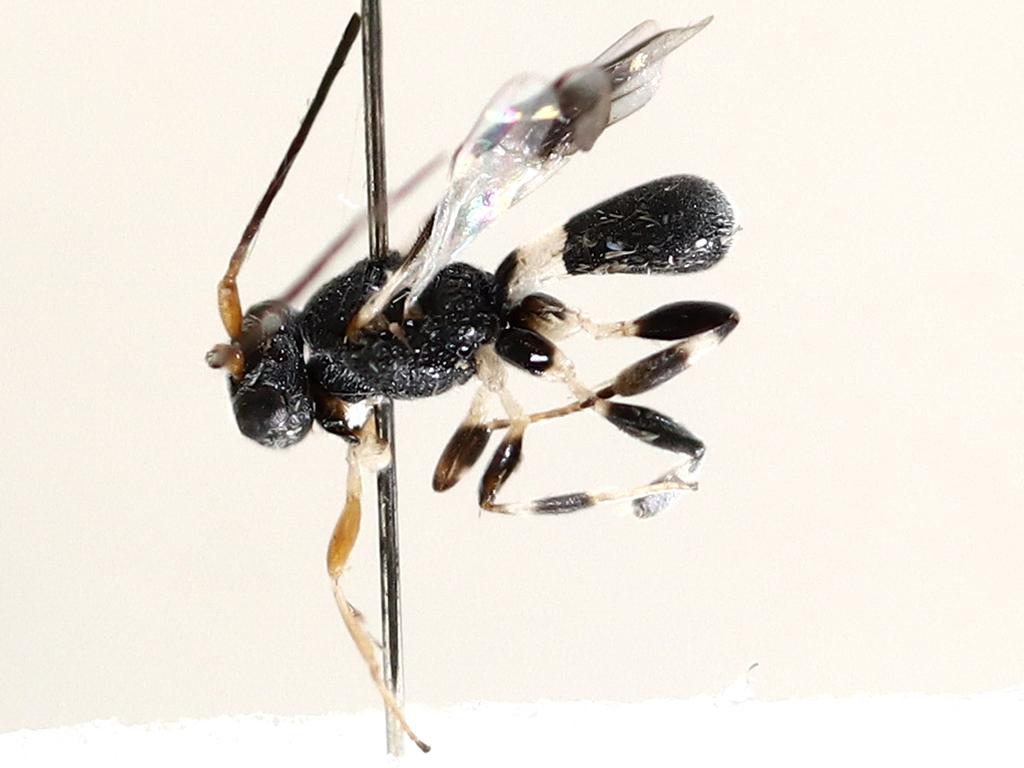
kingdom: Animalia
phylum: Arthropoda
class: Insecta
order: Diptera
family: Sciaridae
